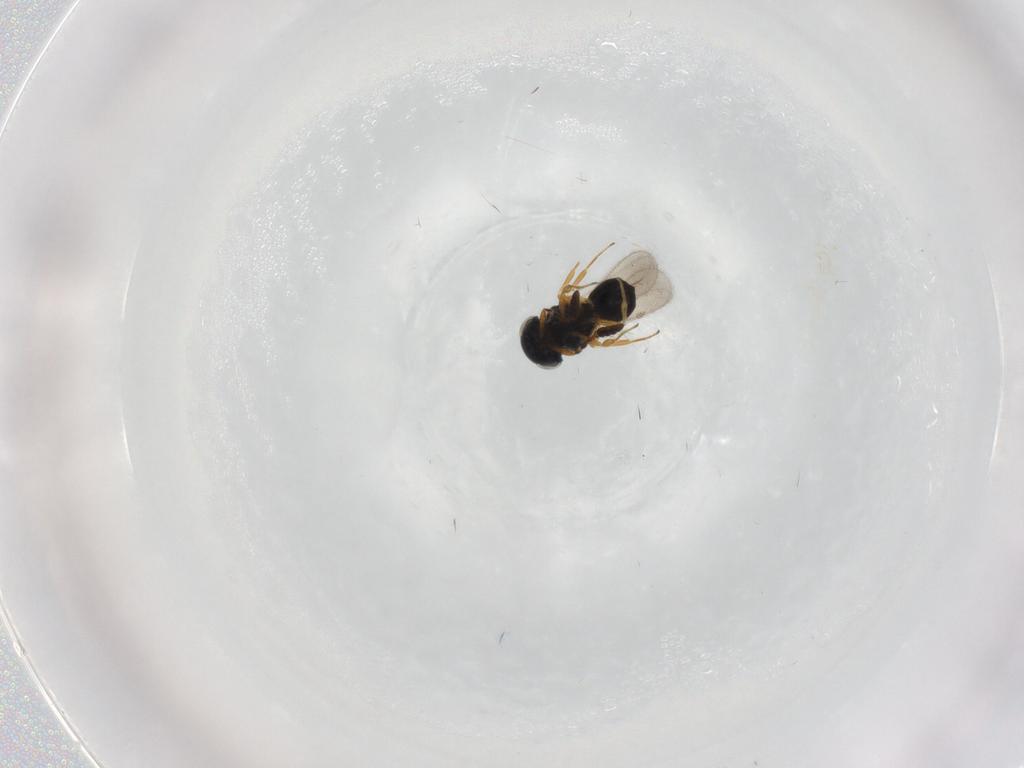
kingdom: Animalia
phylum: Arthropoda
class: Insecta
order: Hymenoptera
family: Scelionidae
